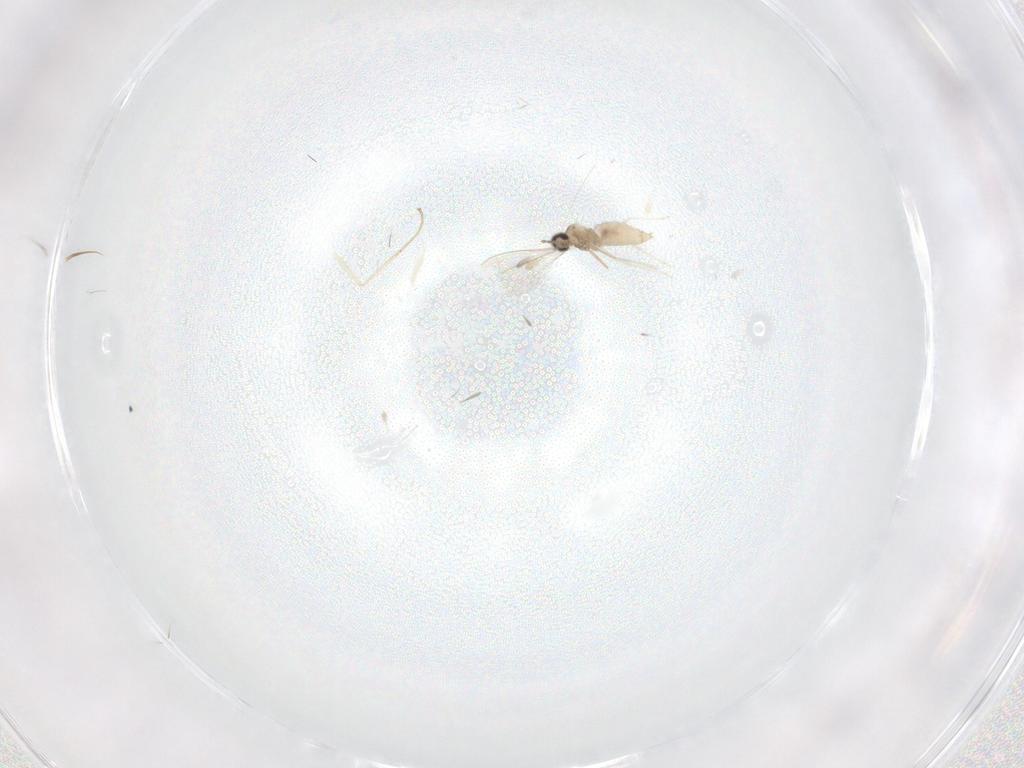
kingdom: Animalia
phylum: Arthropoda
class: Insecta
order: Diptera
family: Cecidomyiidae
